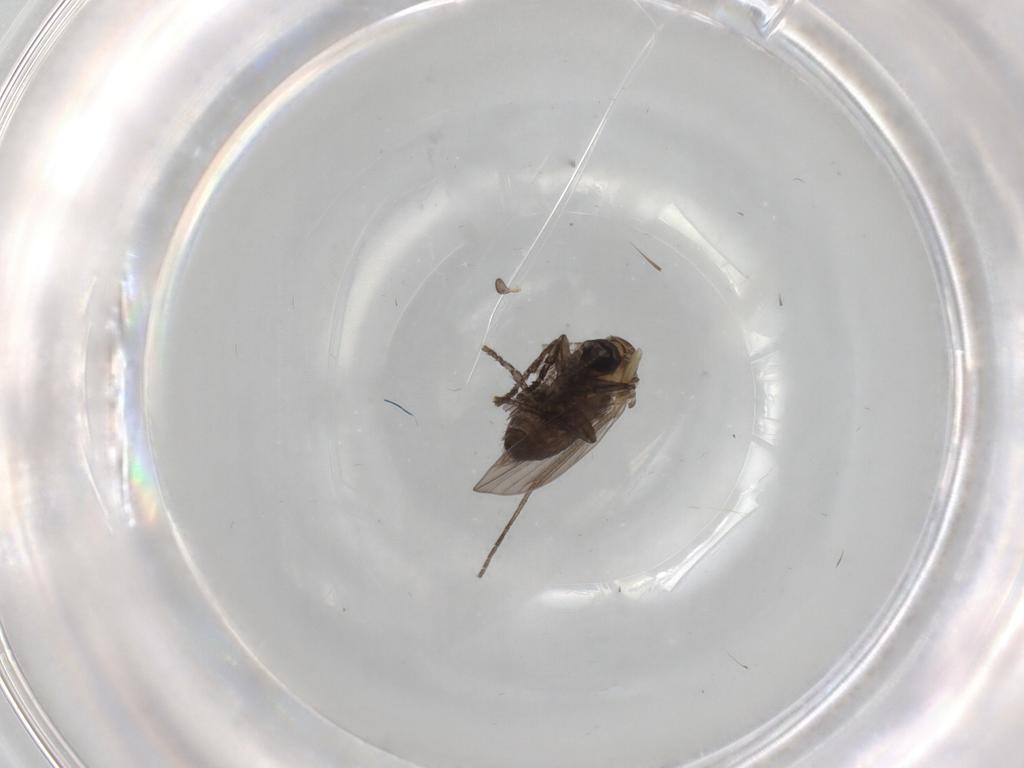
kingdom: Animalia
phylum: Arthropoda
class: Insecta
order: Diptera
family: Psychodidae
